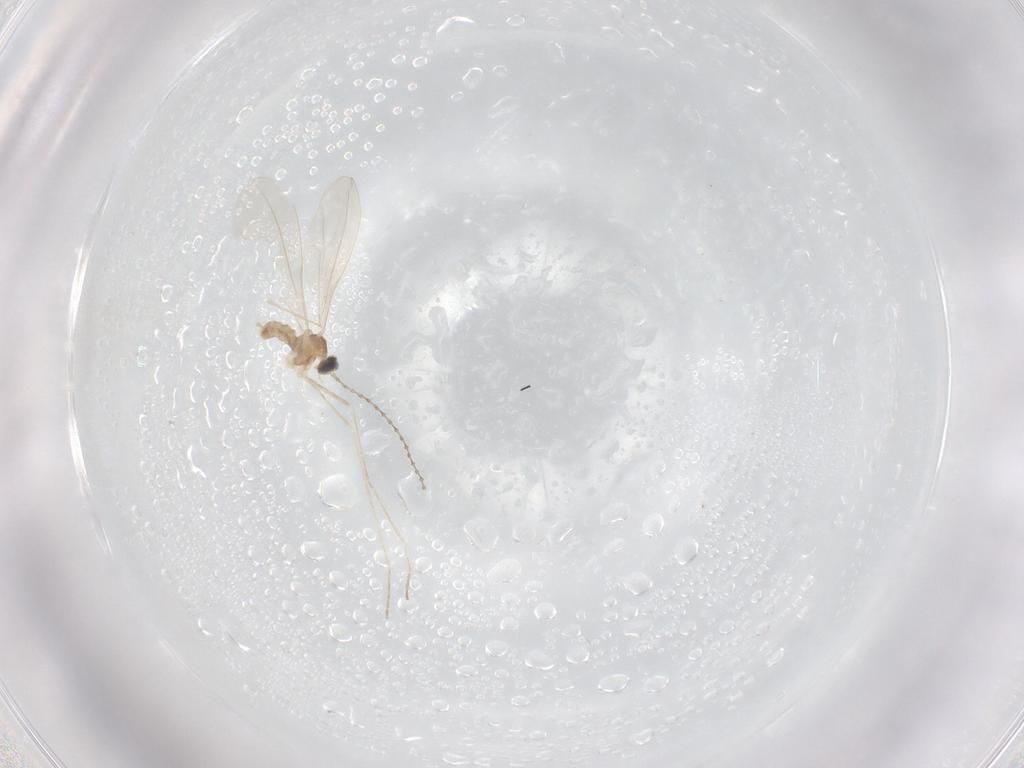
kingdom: Animalia
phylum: Arthropoda
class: Insecta
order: Diptera
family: Cecidomyiidae
